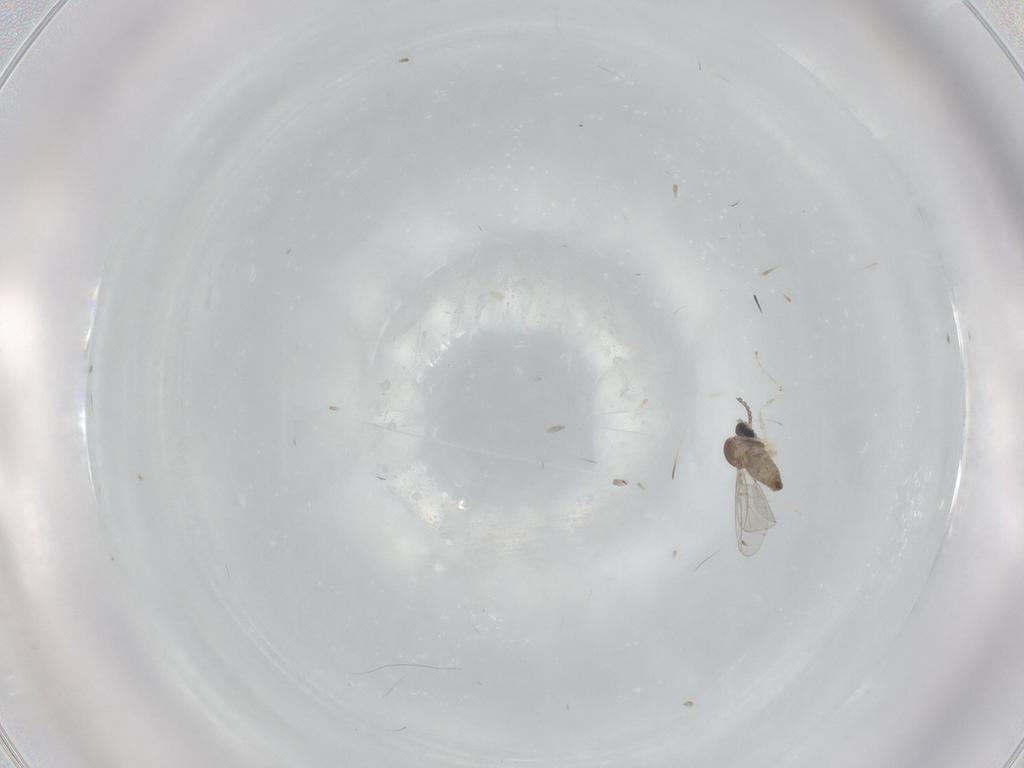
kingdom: Animalia
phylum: Arthropoda
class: Insecta
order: Diptera
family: Cecidomyiidae
